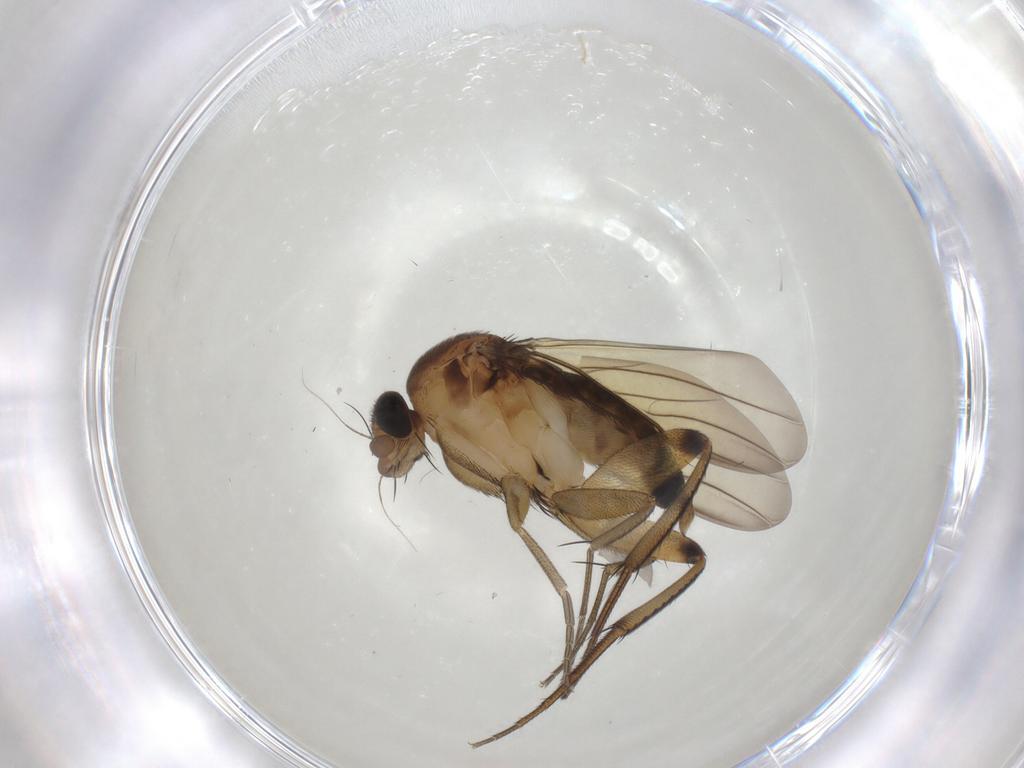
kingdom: Animalia
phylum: Arthropoda
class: Insecta
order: Diptera
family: Phoridae
